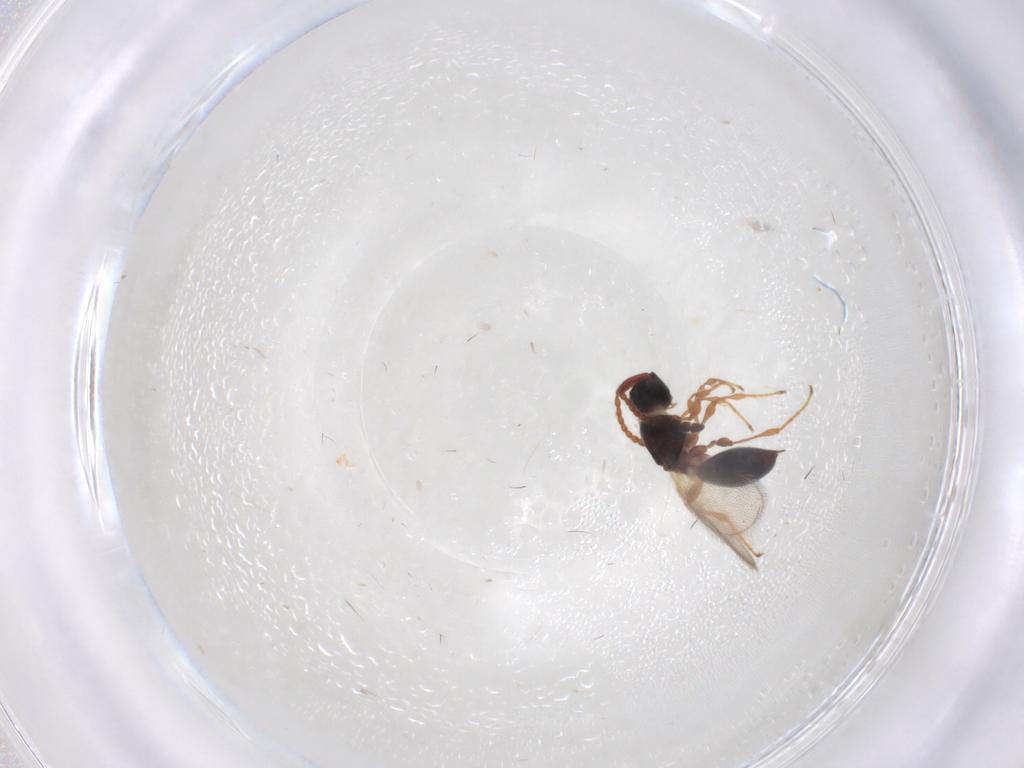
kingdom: Animalia
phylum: Arthropoda
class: Insecta
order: Hymenoptera
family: Diapriidae
